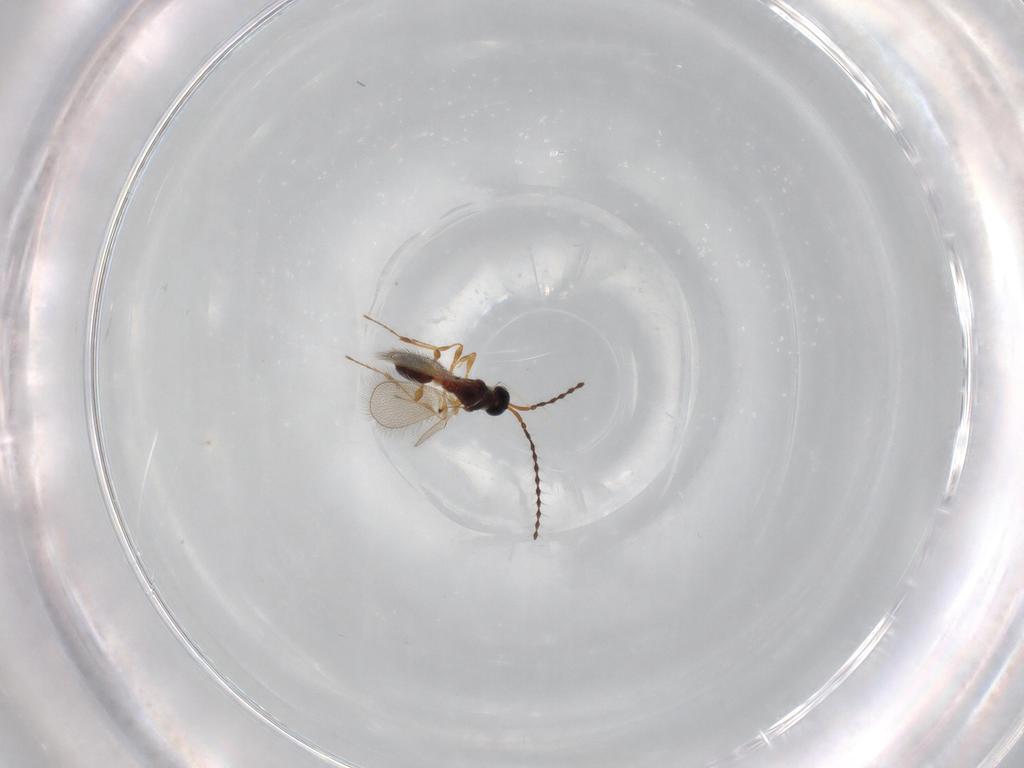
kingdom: Animalia
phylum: Arthropoda
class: Insecta
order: Hymenoptera
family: Diapriidae
